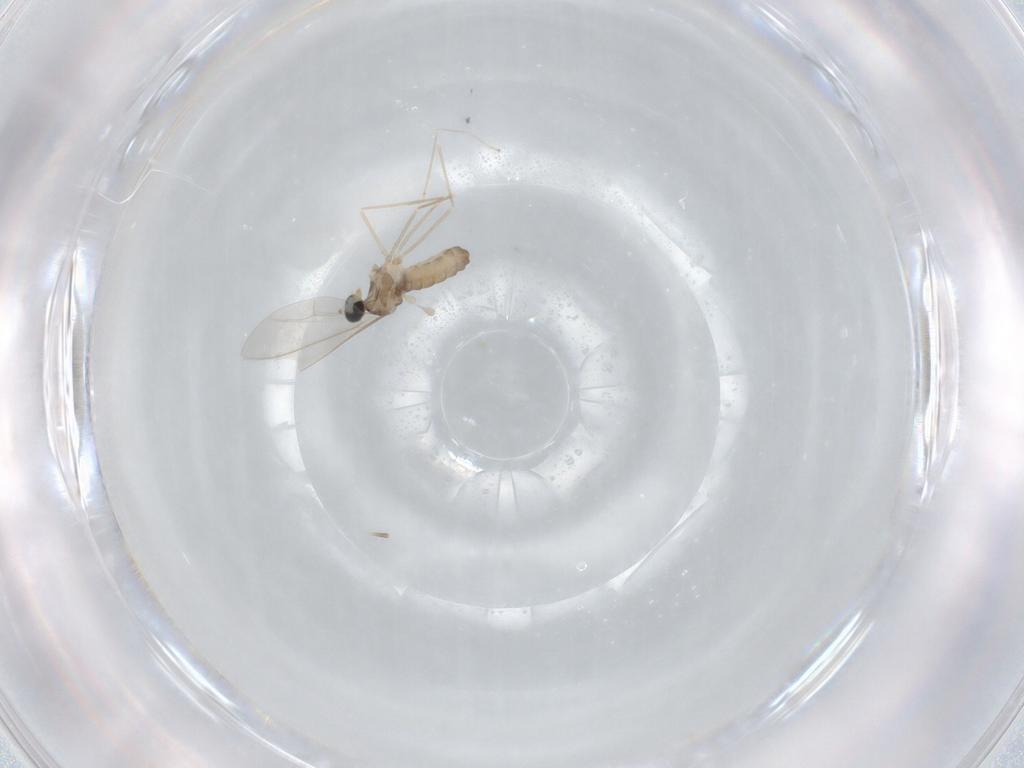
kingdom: Animalia
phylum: Arthropoda
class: Insecta
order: Diptera
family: Cecidomyiidae
